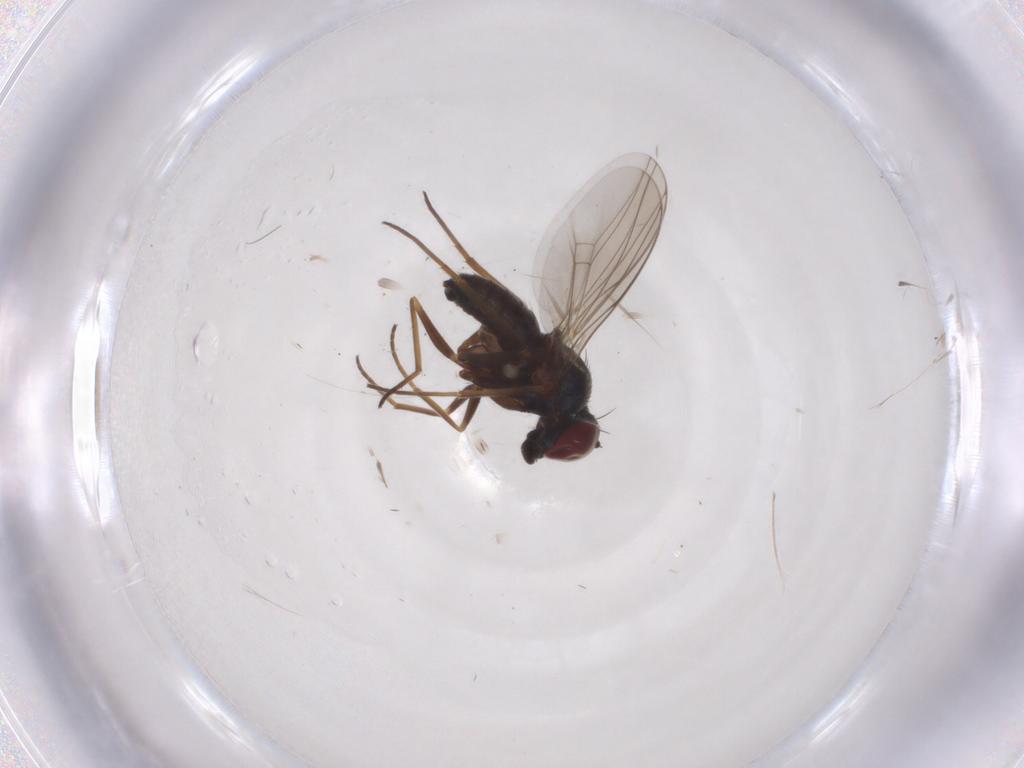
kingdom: Animalia
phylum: Arthropoda
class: Insecta
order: Diptera
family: Dolichopodidae
